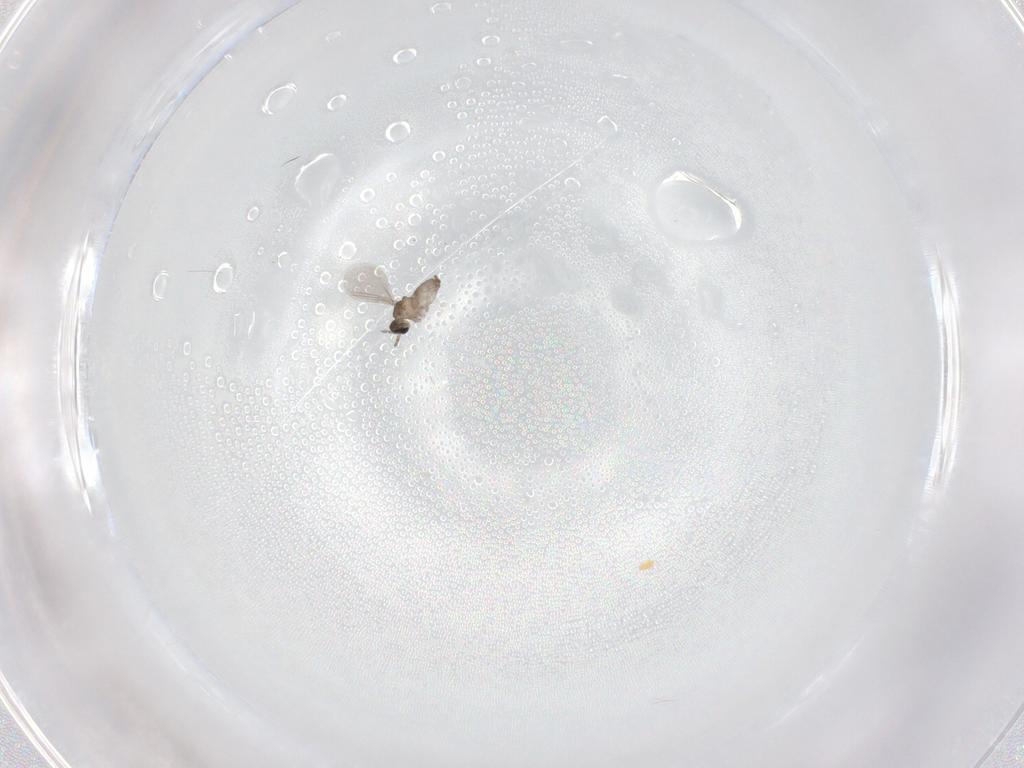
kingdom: Animalia
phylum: Arthropoda
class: Insecta
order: Diptera
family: Cecidomyiidae
